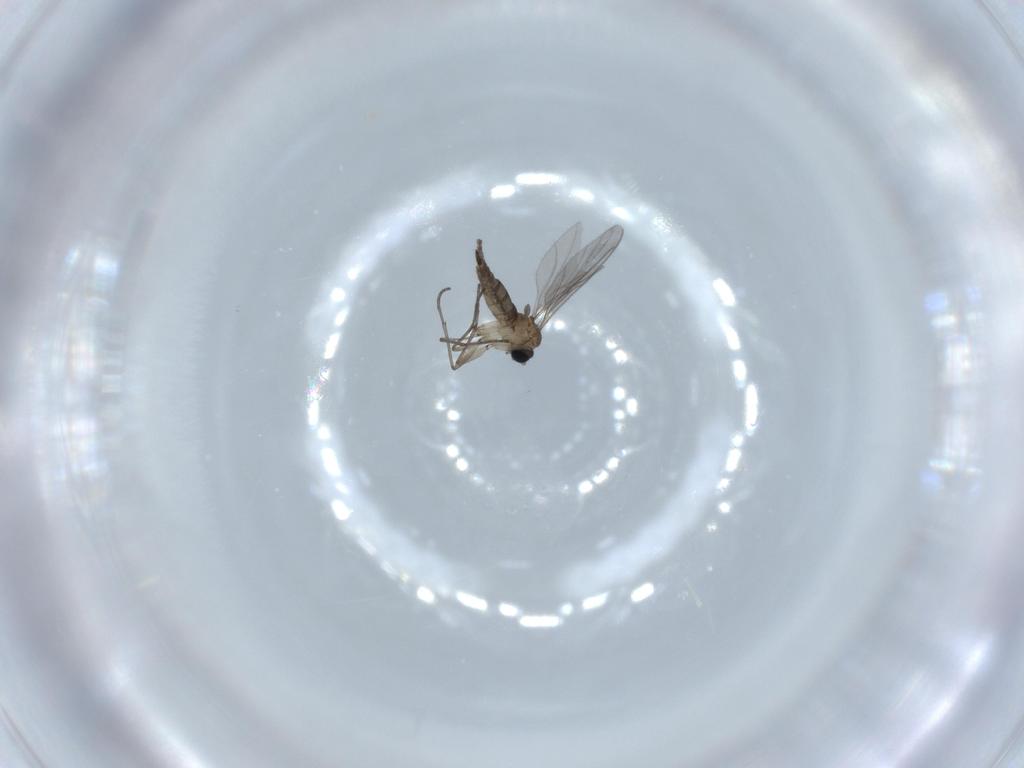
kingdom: Animalia
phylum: Arthropoda
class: Insecta
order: Diptera
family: Sciaridae
